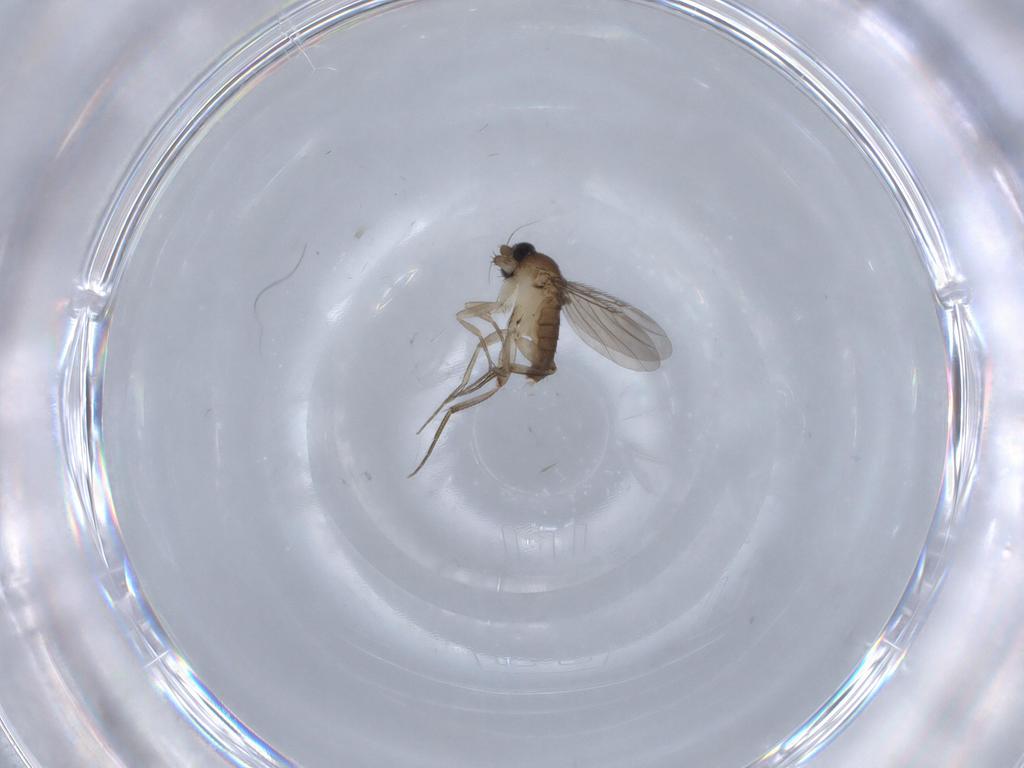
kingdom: Animalia
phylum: Arthropoda
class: Insecta
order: Diptera
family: Phoridae
